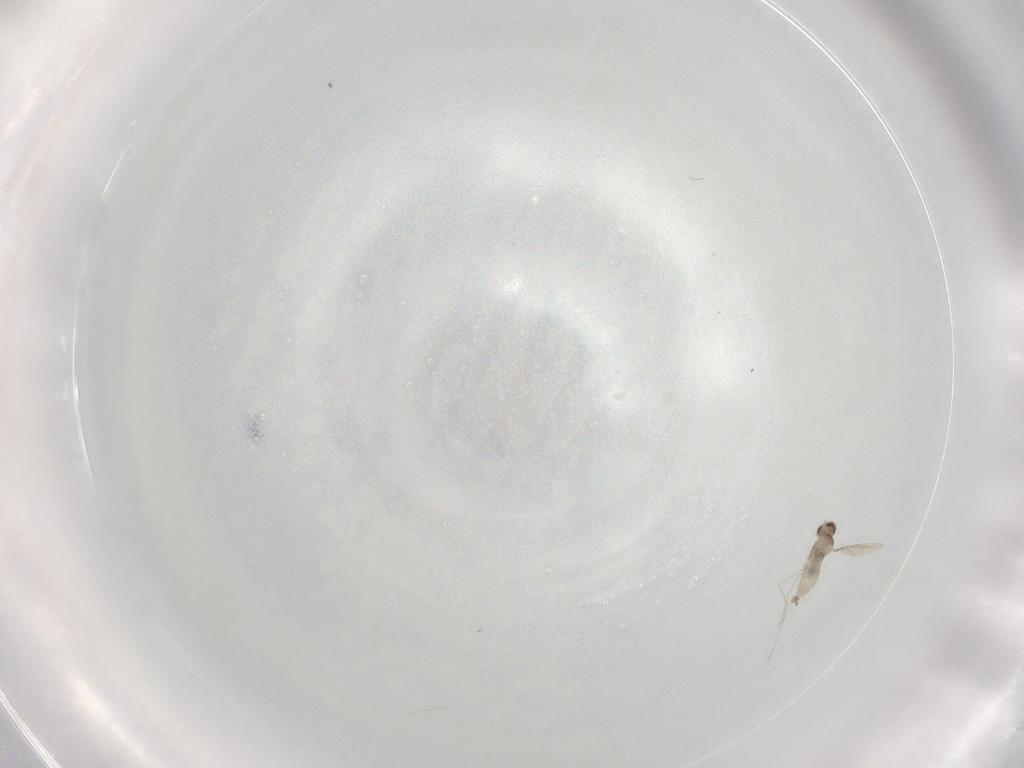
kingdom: Animalia
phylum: Arthropoda
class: Insecta
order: Diptera
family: Cecidomyiidae
